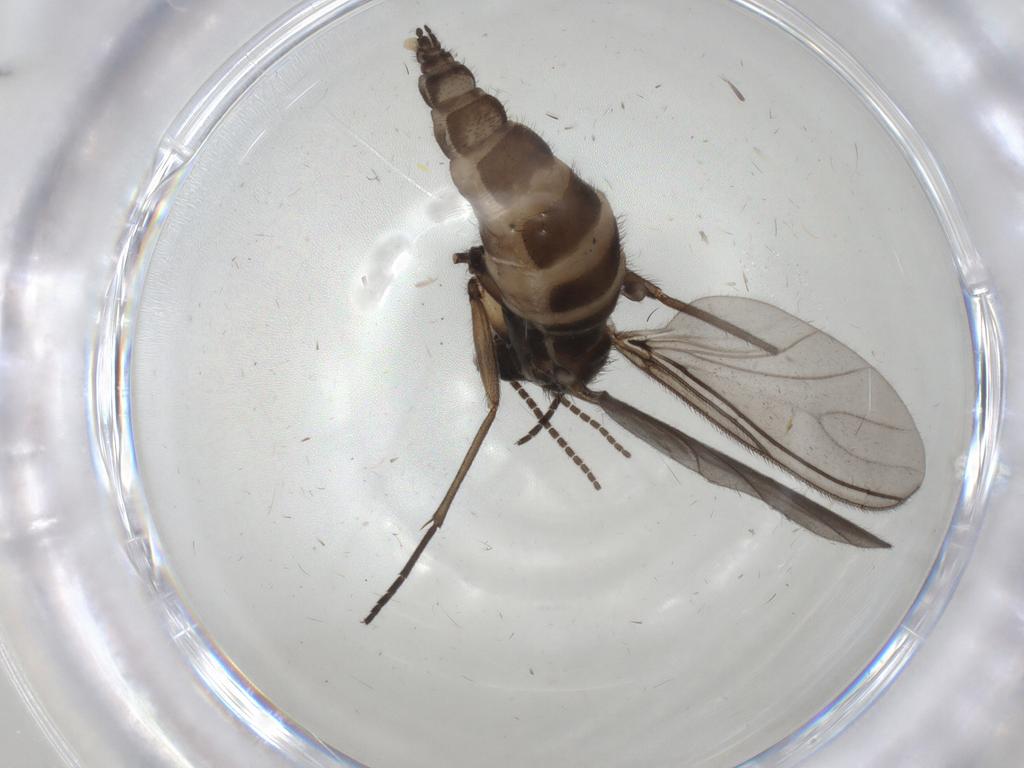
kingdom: Animalia
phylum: Arthropoda
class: Insecta
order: Diptera
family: Sciaridae
